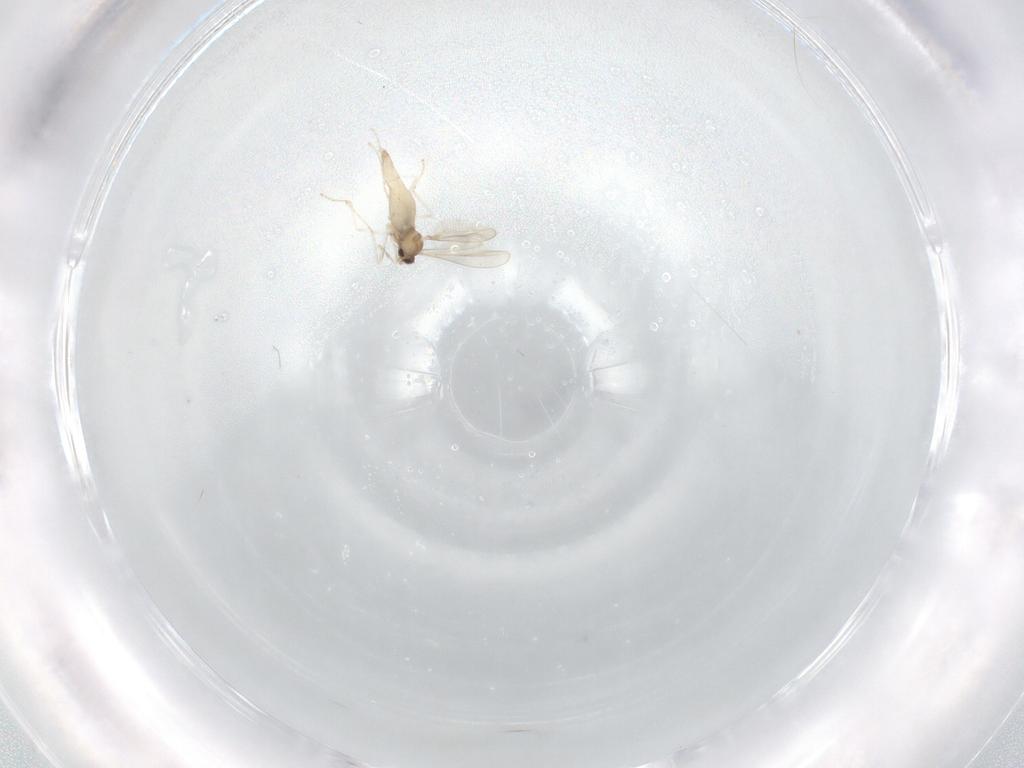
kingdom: Animalia
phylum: Arthropoda
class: Insecta
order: Diptera
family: Cecidomyiidae
